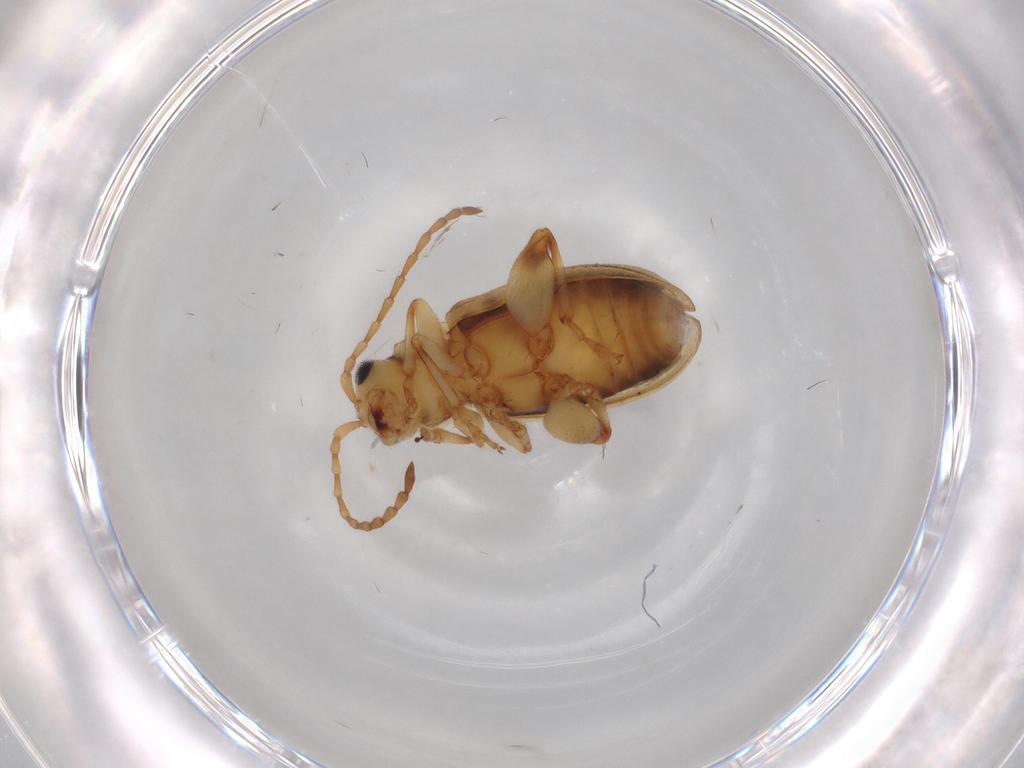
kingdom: Animalia
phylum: Arthropoda
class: Insecta
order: Coleoptera
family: Chrysomelidae
